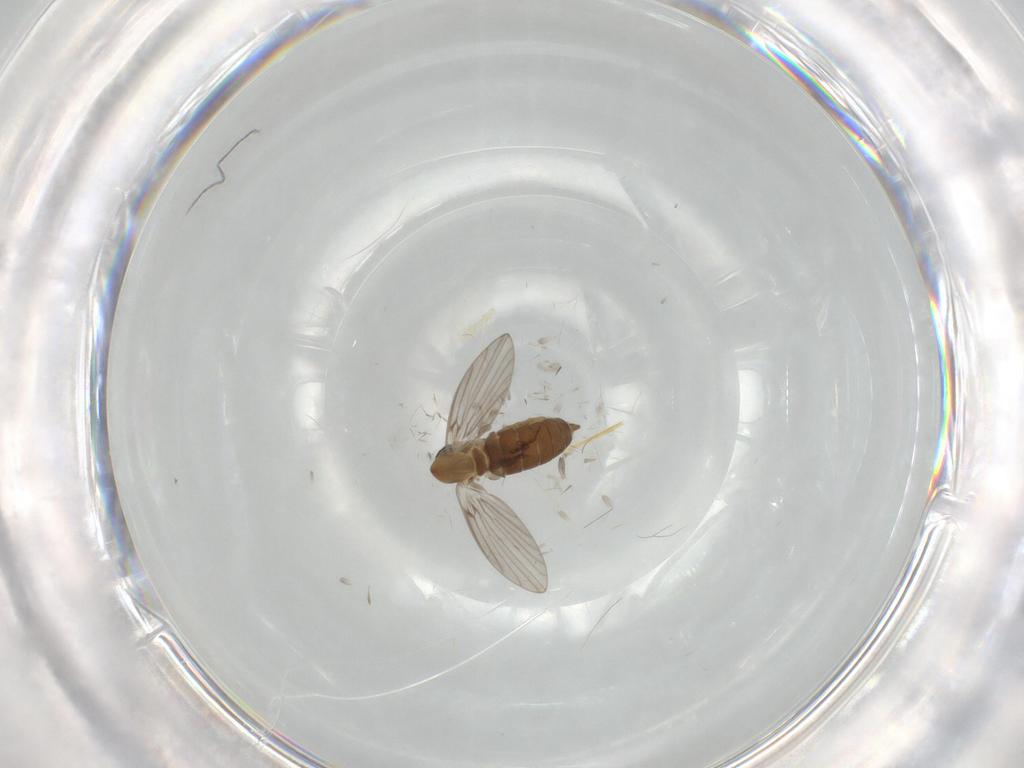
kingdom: Animalia
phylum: Arthropoda
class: Insecta
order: Diptera
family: Psychodidae
